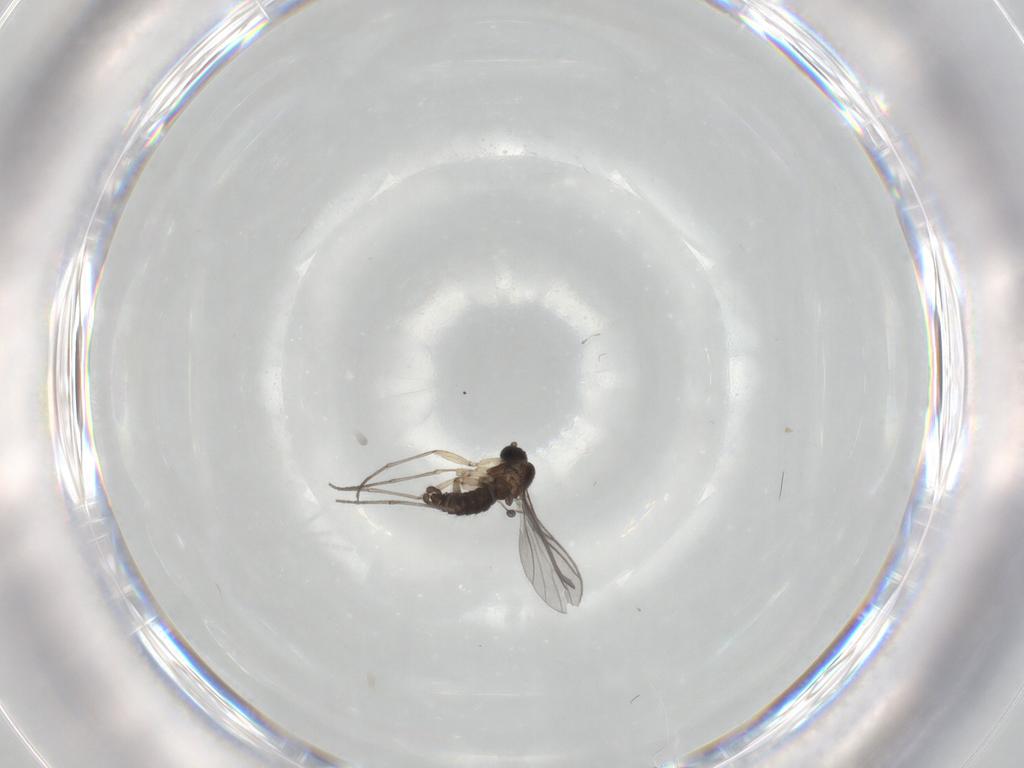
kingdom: Animalia
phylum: Arthropoda
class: Insecta
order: Diptera
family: Sciaridae
